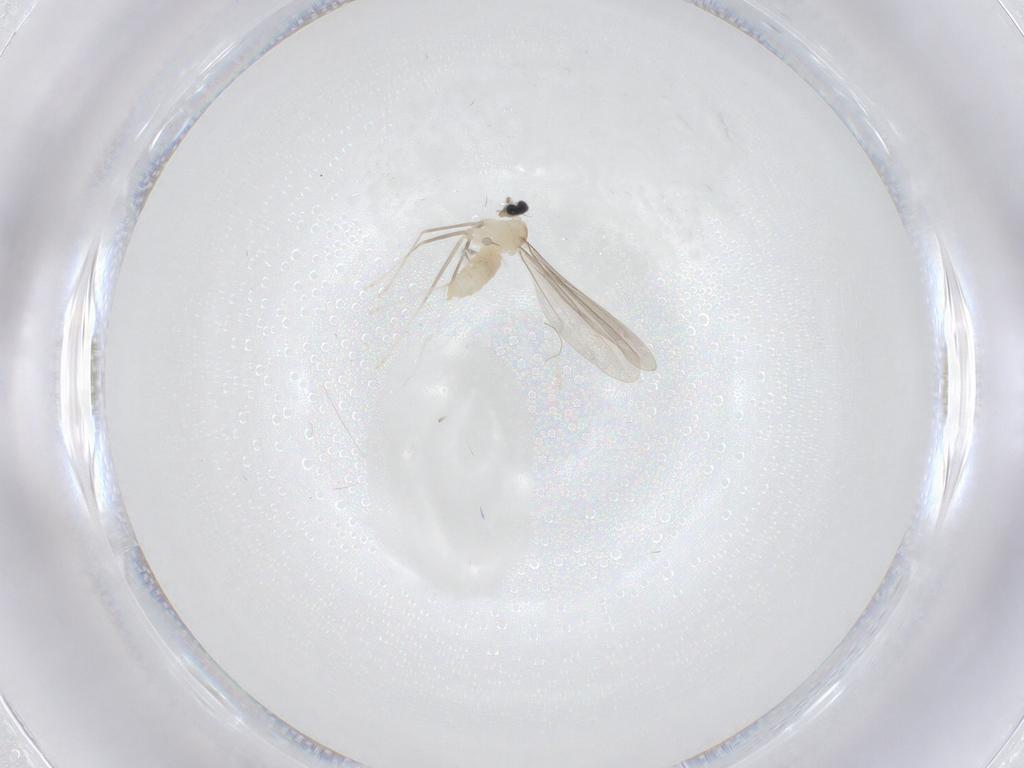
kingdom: Animalia
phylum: Arthropoda
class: Insecta
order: Diptera
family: Cecidomyiidae
